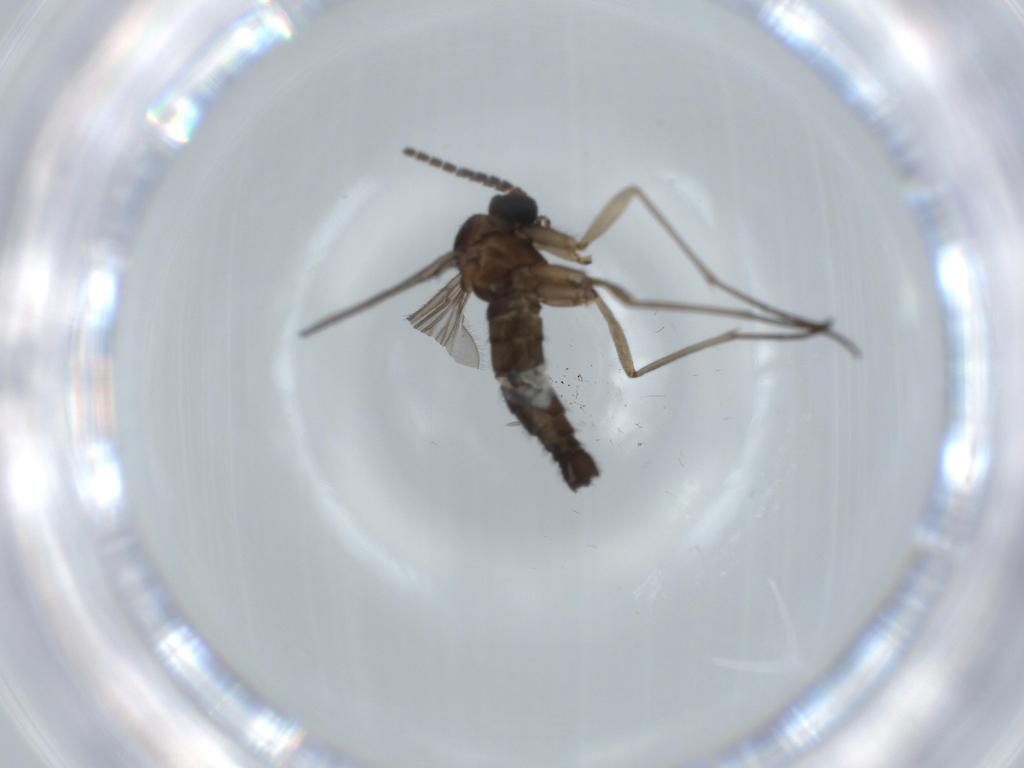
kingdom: Animalia
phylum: Arthropoda
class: Insecta
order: Diptera
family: Sciaridae
